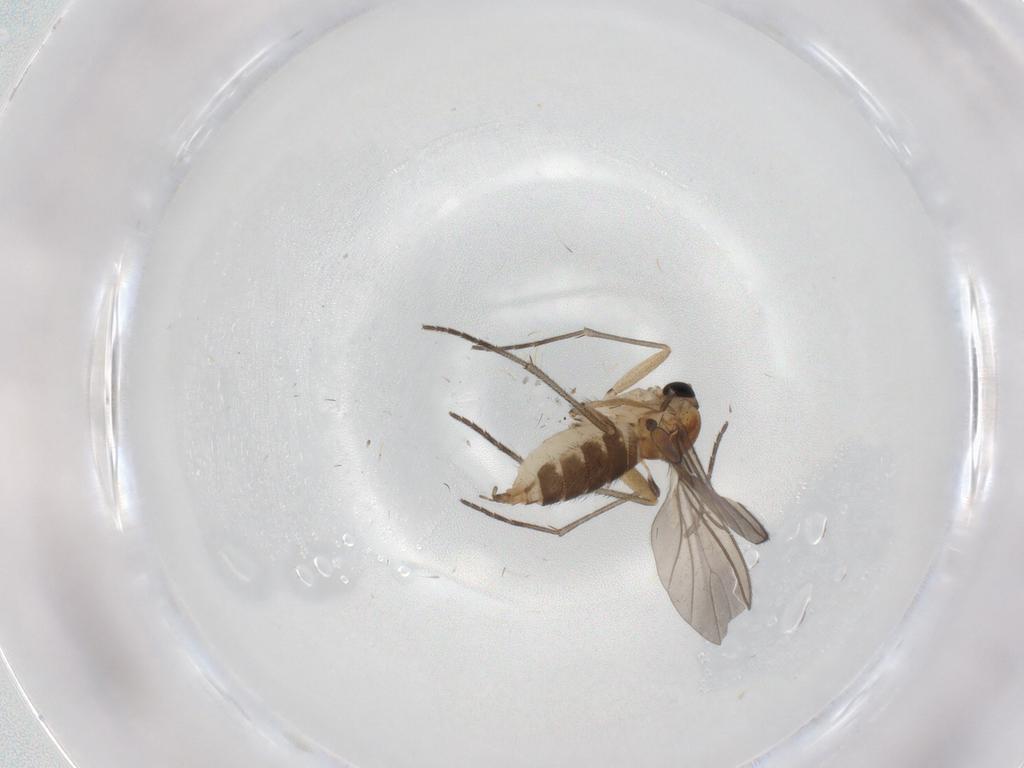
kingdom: Animalia
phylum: Arthropoda
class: Insecta
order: Diptera
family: Sciaridae
